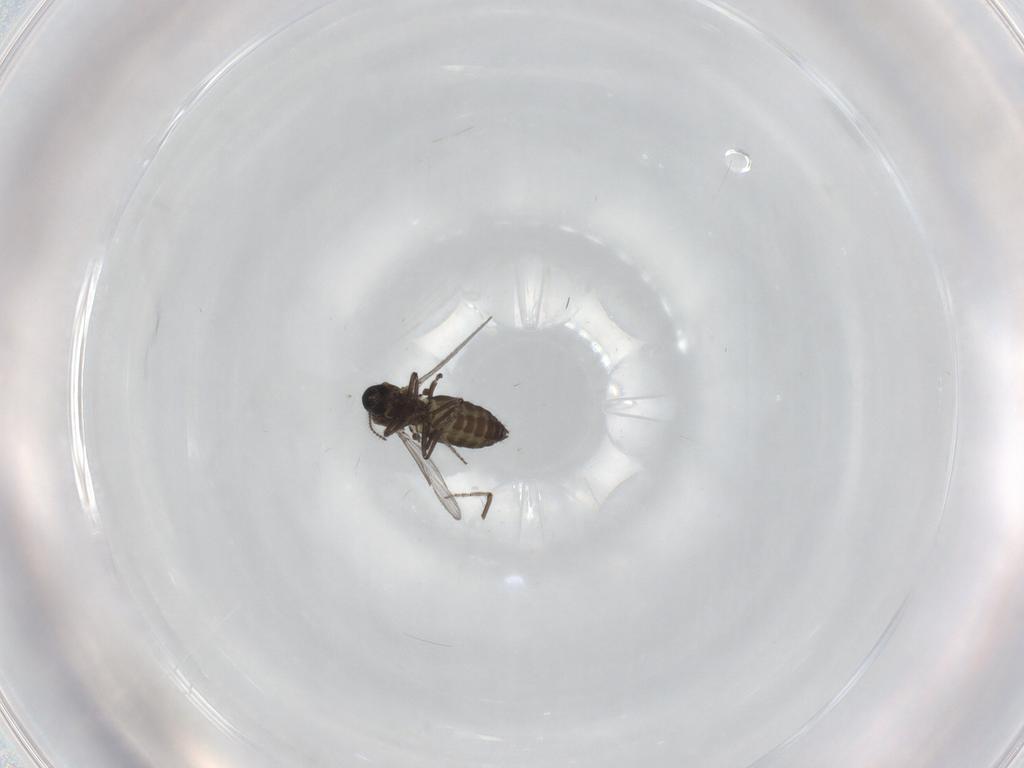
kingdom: Animalia
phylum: Arthropoda
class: Insecta
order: Diptera
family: Ceratopogonidae
